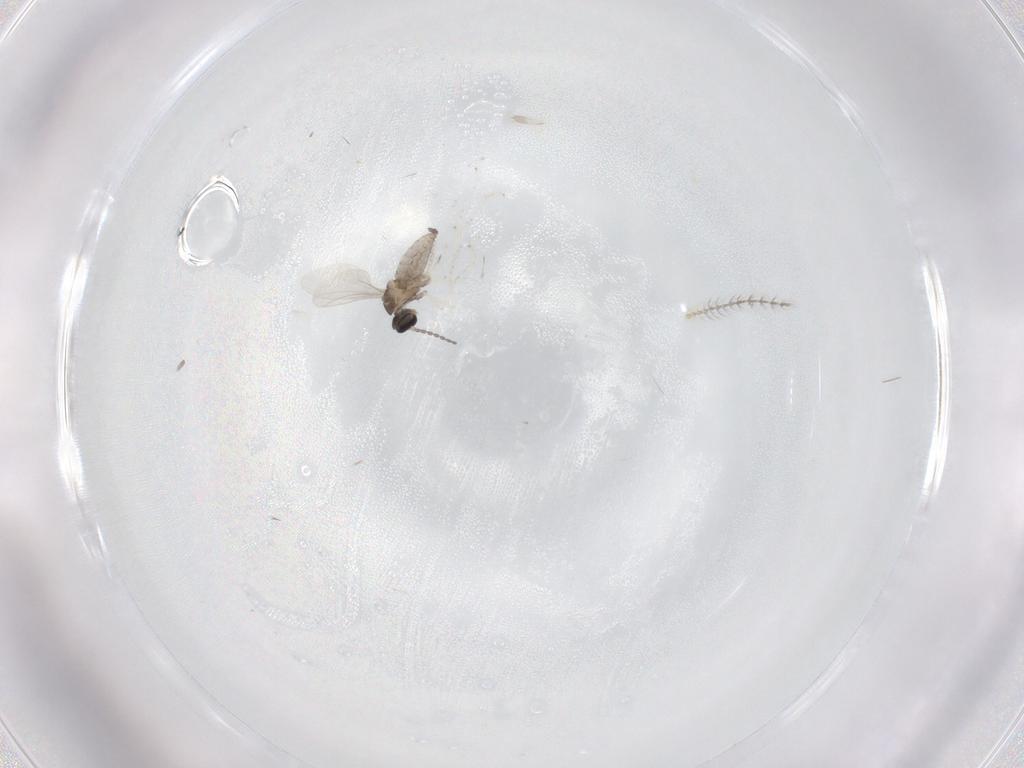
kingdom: Animalia
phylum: Arthropoda
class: Insecta
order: Diptera
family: Cecidomyiidae
